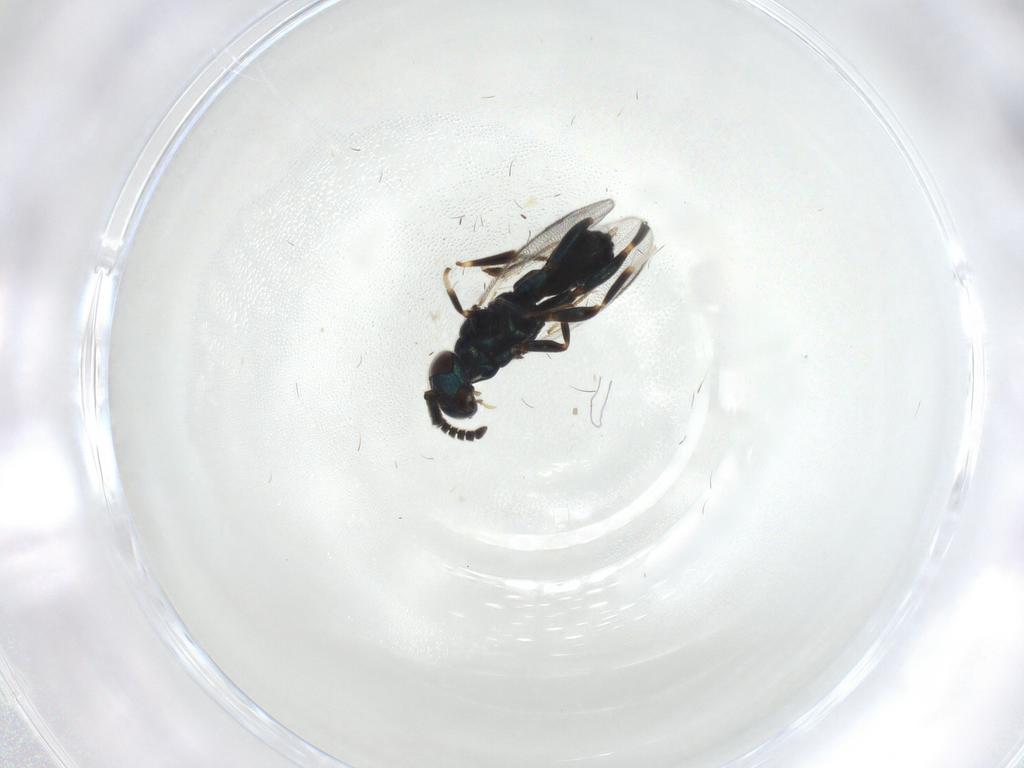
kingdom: Animalia
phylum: Arthropoda
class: Insecta
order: Hymenoptera
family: Cleonyminae
